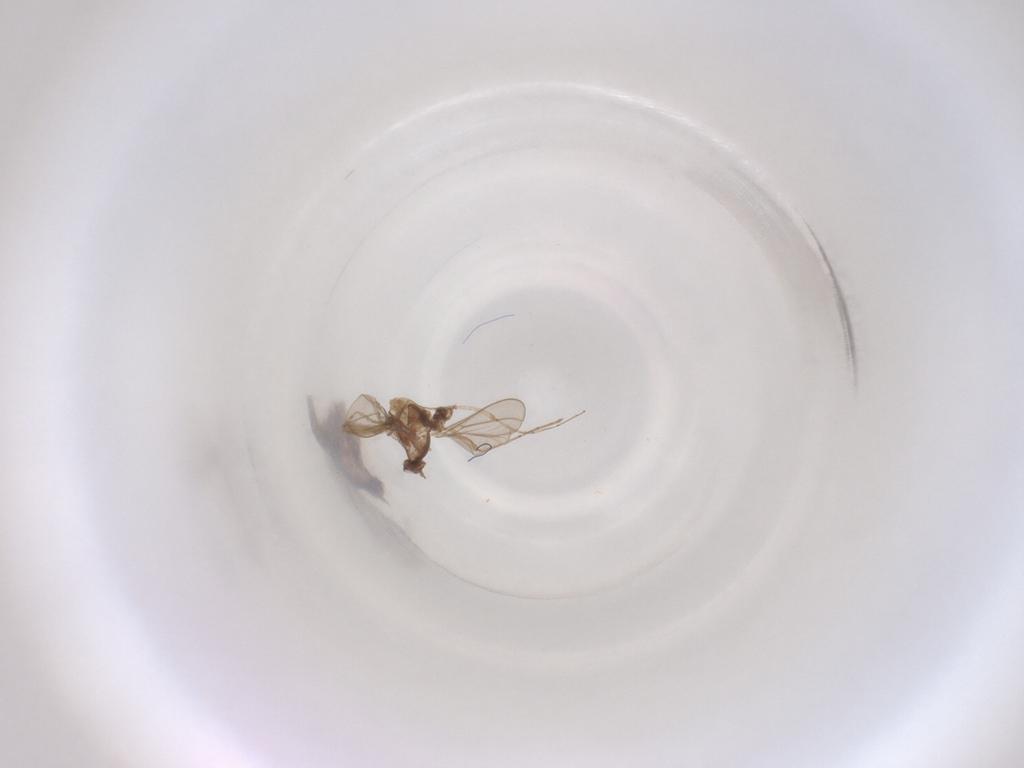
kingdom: Animalia
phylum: Arthropoda
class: Insecta
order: Diptera
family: Cecidomyiidae
